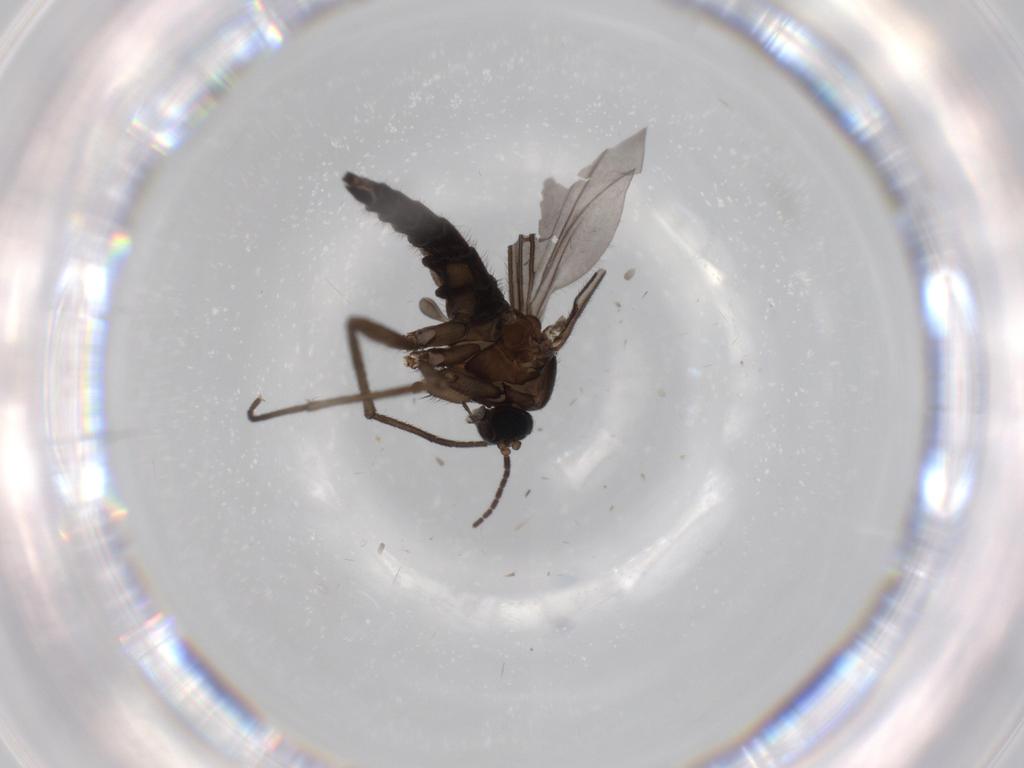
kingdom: Animalia
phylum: Arthropoda
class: Insecta
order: Diptera
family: Sciaridae
